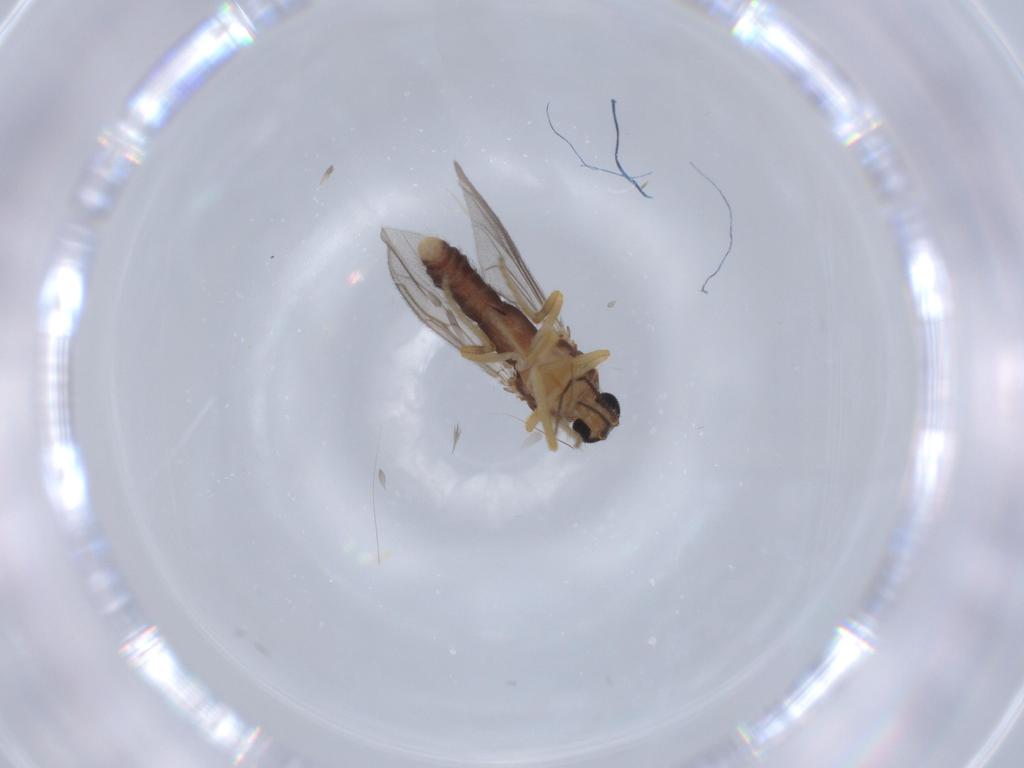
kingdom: Animalia
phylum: Arthropoda
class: Insecta
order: Diptera
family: Ceratopogonidae
